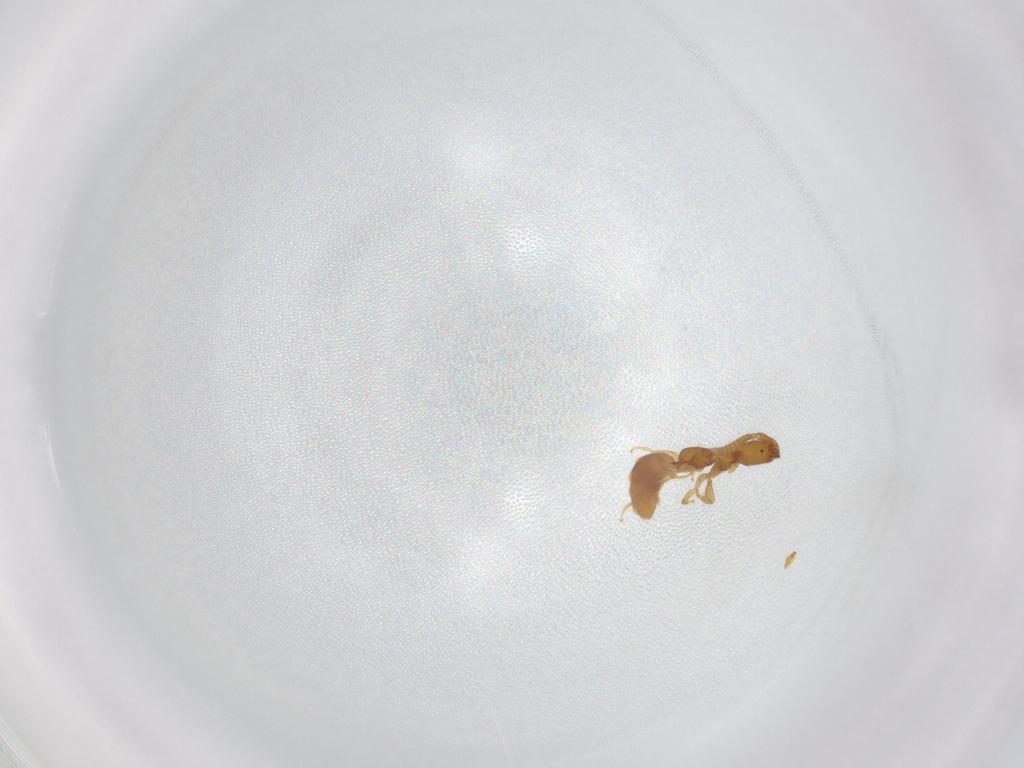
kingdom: Animalia
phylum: Arthropoda
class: Insecta
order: Hymenoptera
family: Bethylidae
